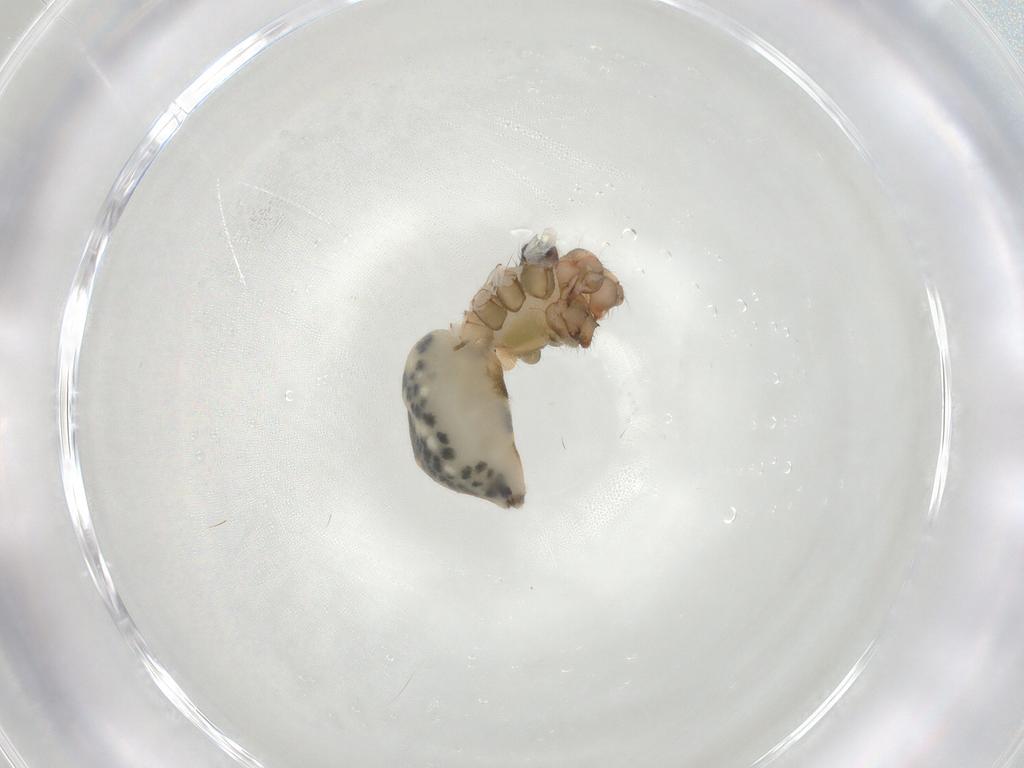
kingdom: Animalia
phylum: Arthropoda
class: Arachnida
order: Araneae
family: Pholcidae
